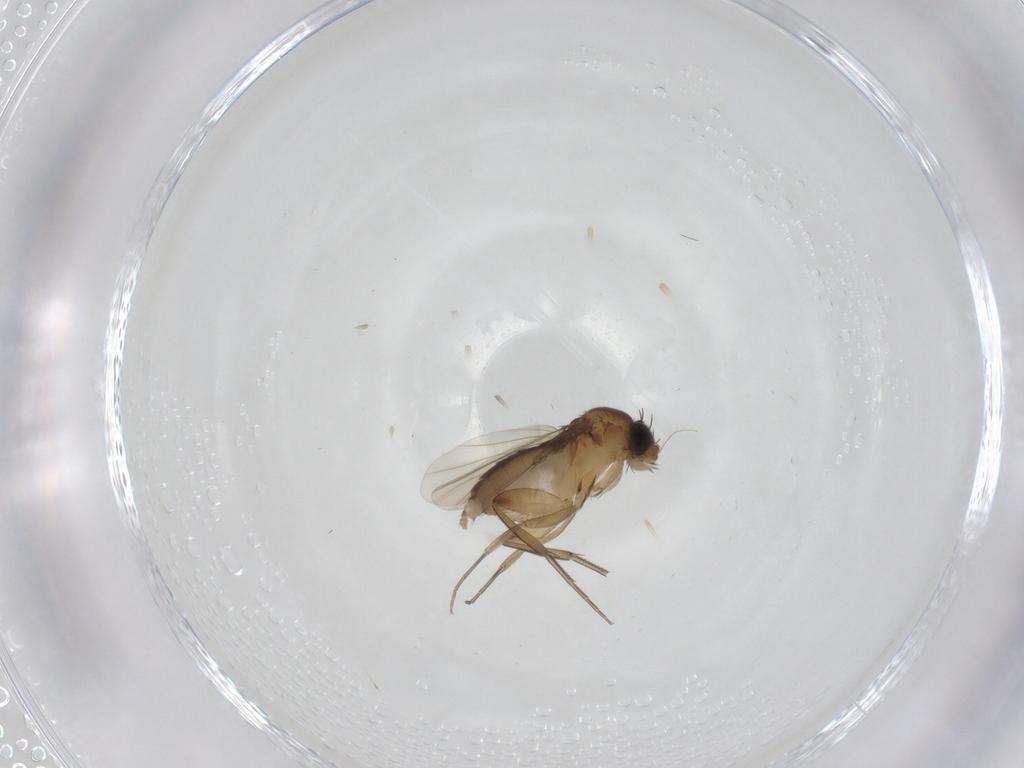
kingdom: Animalia
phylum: Arthropoda
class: Insecta
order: Diptera
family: Phoridae
